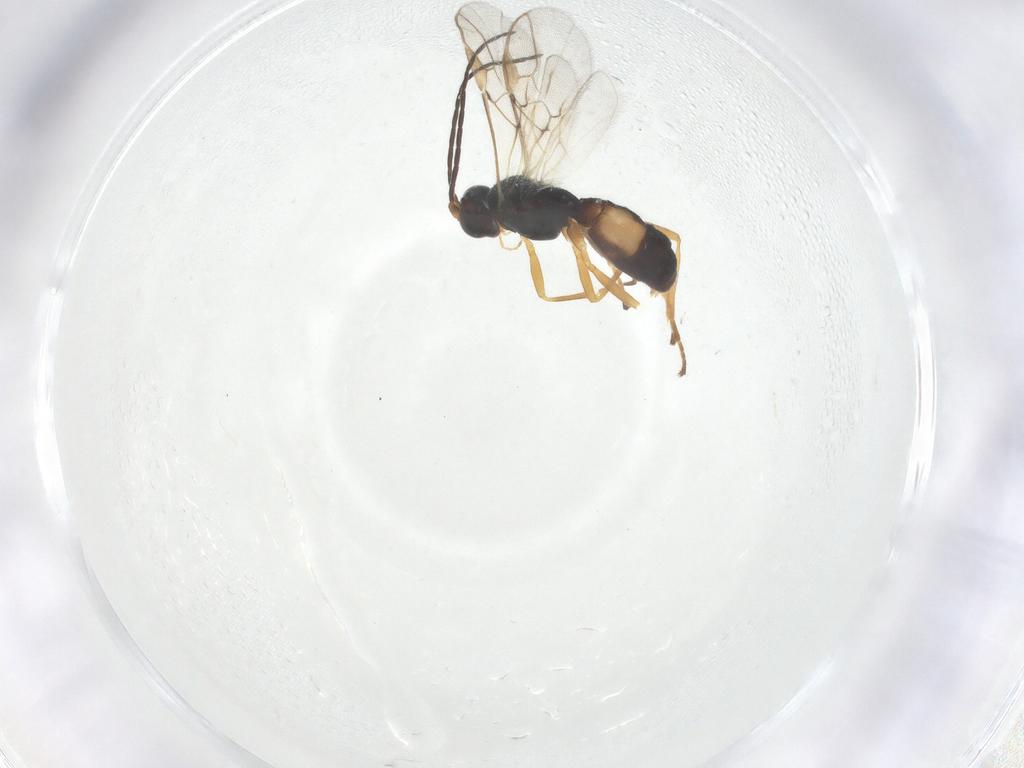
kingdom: Animalia
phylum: Arthropoda
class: Insecta
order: Hymenoptera
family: Braconidae
